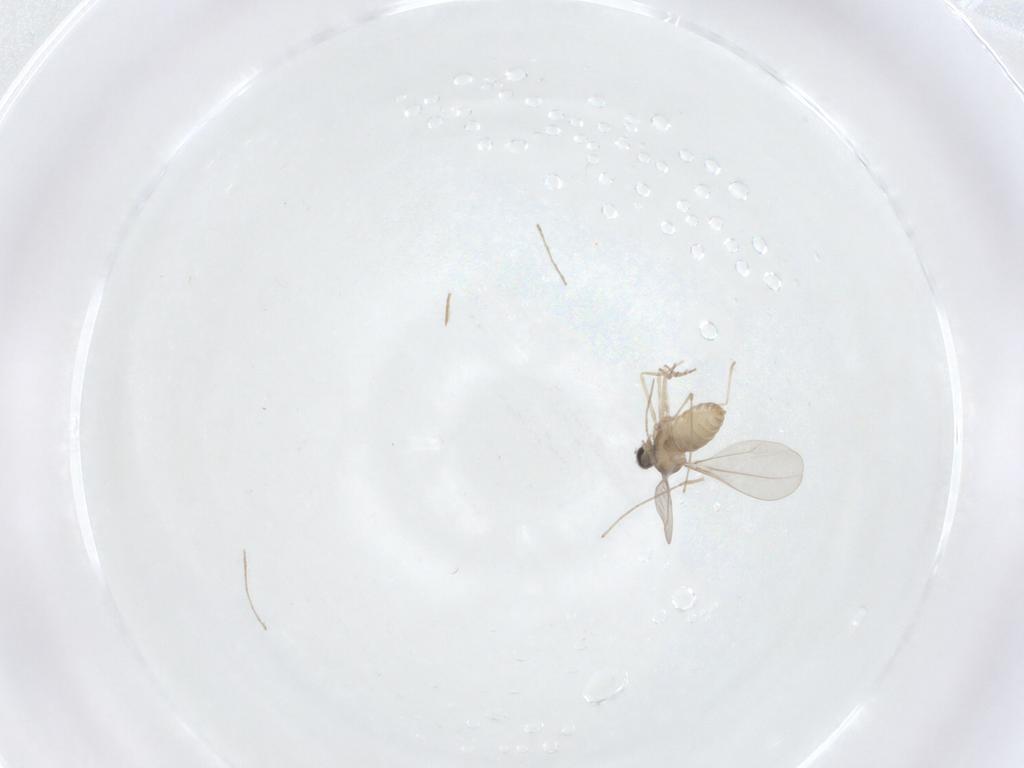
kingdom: Animalia
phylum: Arthropoda
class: Insecta
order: Diptera
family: Chironomidae
